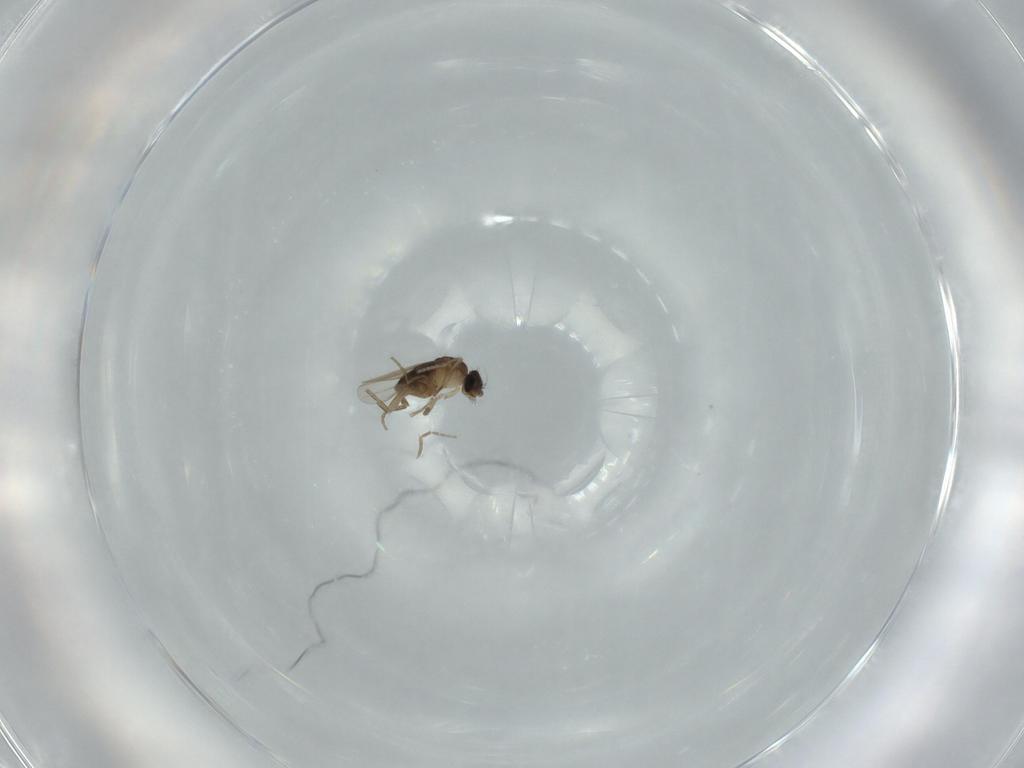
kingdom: Animalia
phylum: Arthropoda
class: Insecta
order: Diptera
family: Phoridae
